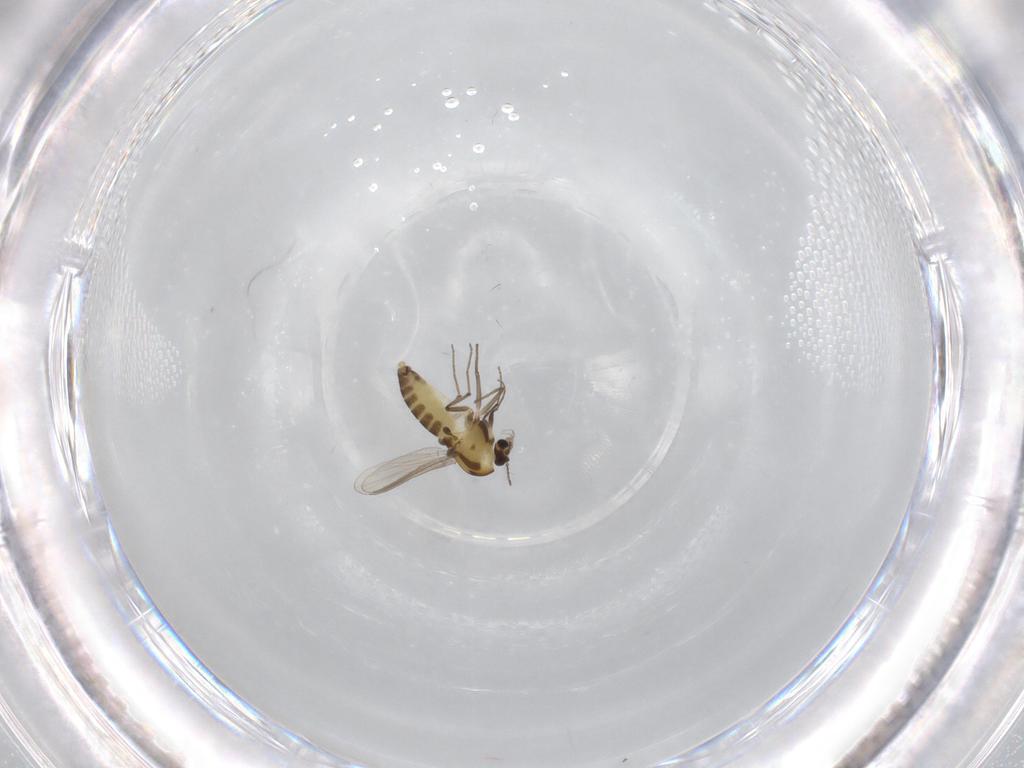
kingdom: Animalia
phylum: Arthropoda
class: Insecta
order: Diptera
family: Chironomidae
